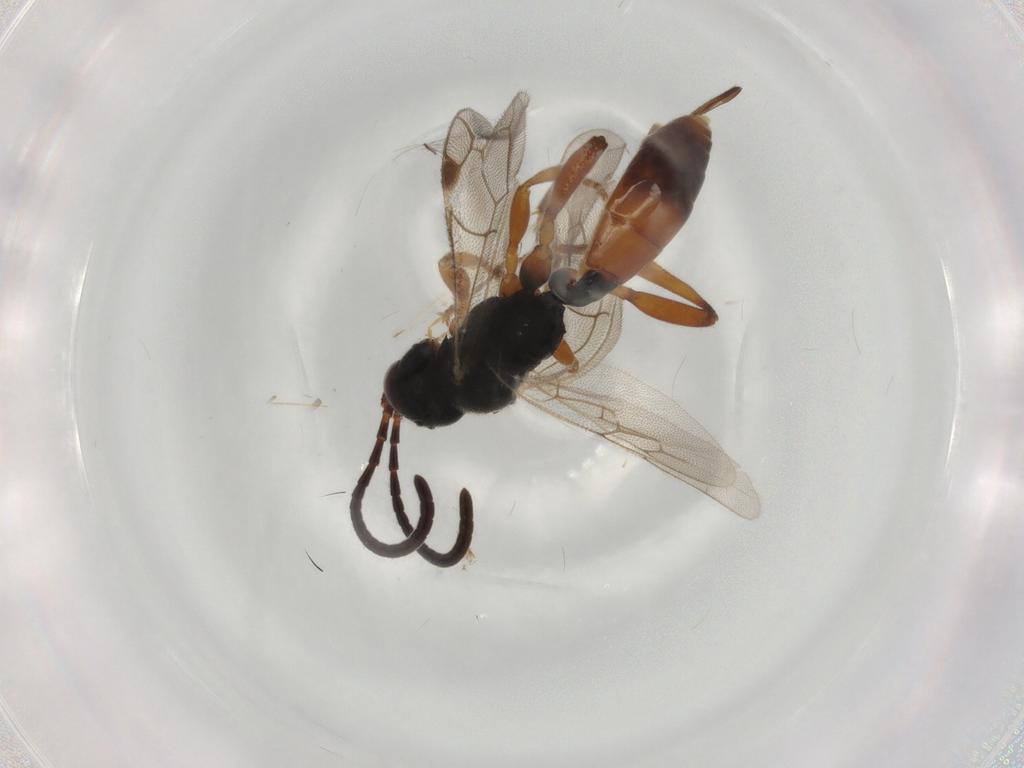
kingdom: Animalia
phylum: Arthropoda
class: Insecta
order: Hymenoptera
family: Ichneumonidae
